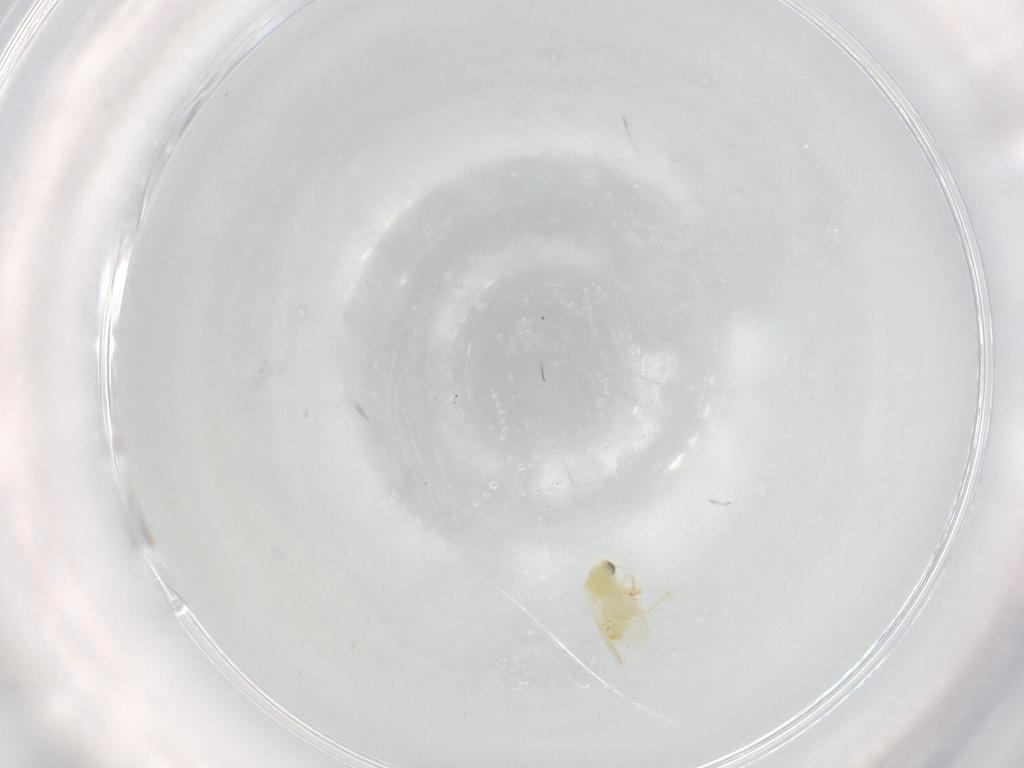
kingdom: Animalia
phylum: Arthropoda
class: Insecta
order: Hemiptera
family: Aleyrodidae
